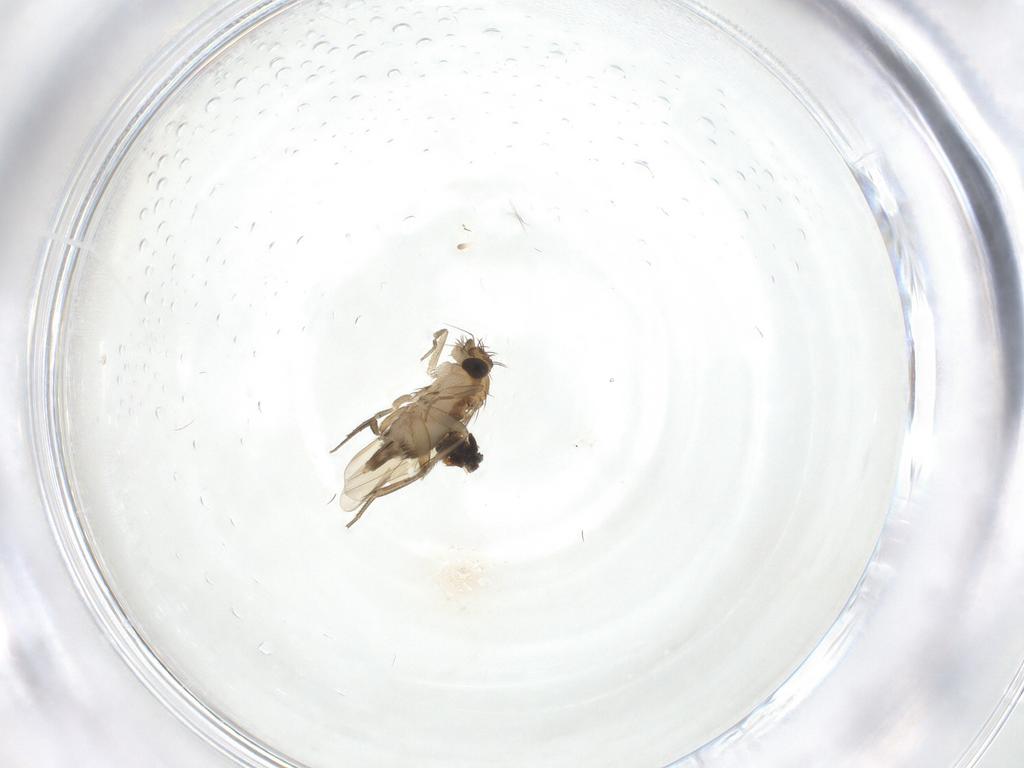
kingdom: Animalia
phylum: Arthropoda
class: Insecta
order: Diptera
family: Phoridae
